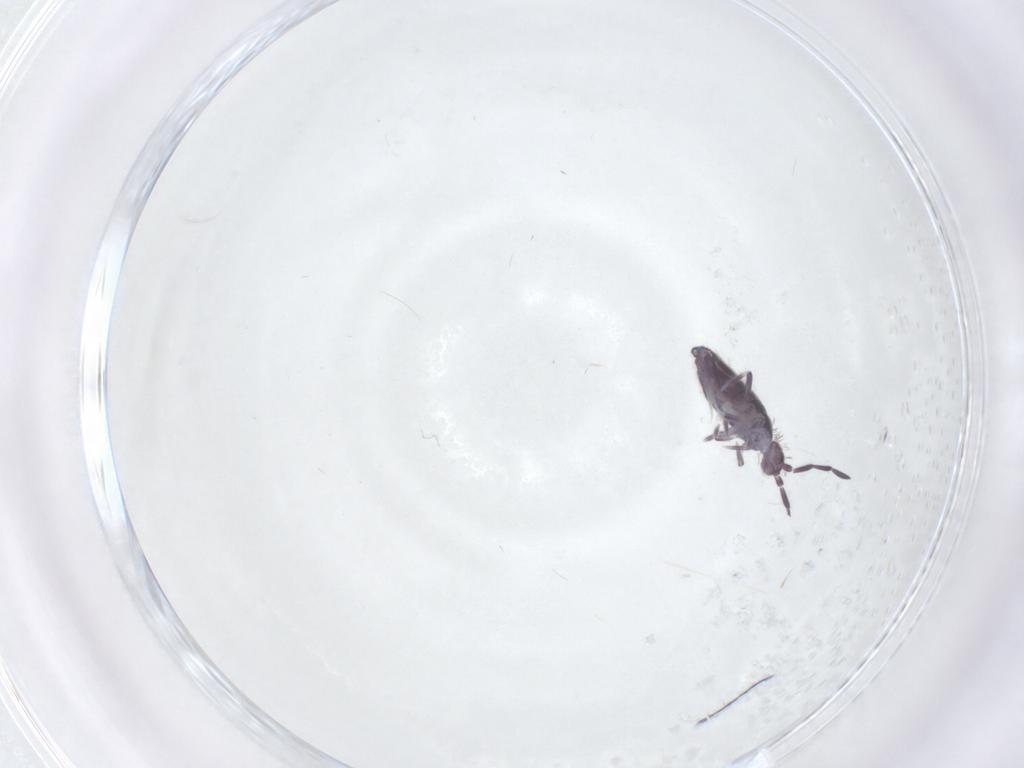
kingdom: Animalia
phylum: Arthropoda
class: Collembola
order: Entomobryomorpha
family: Entomobryidae
